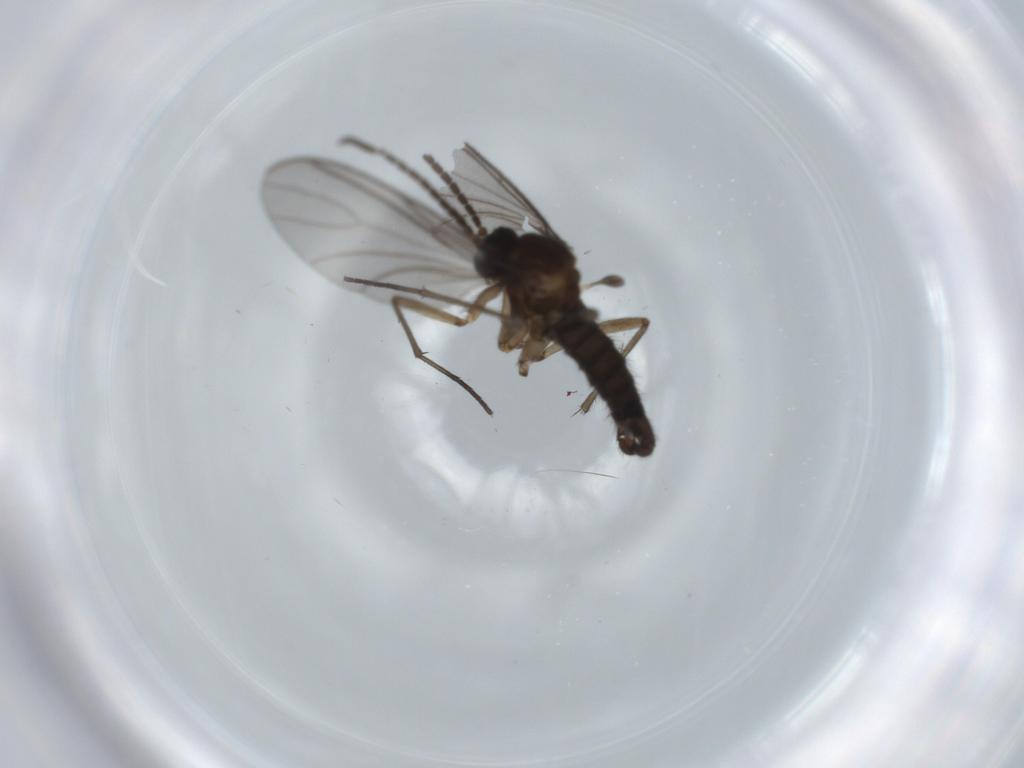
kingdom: Animalia
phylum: Arthropoda
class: Insecta
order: Diptera
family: Sciaridae
